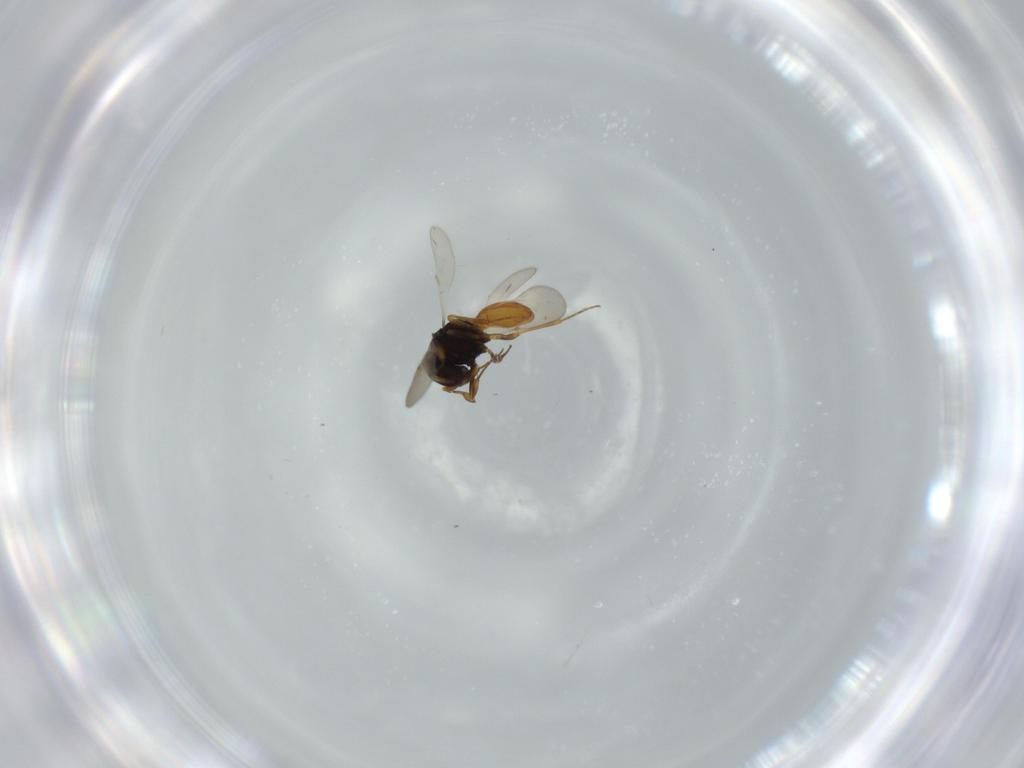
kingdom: Animalia
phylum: Arthropoda
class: Insecta
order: Hymenoptera
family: Scelionidae
